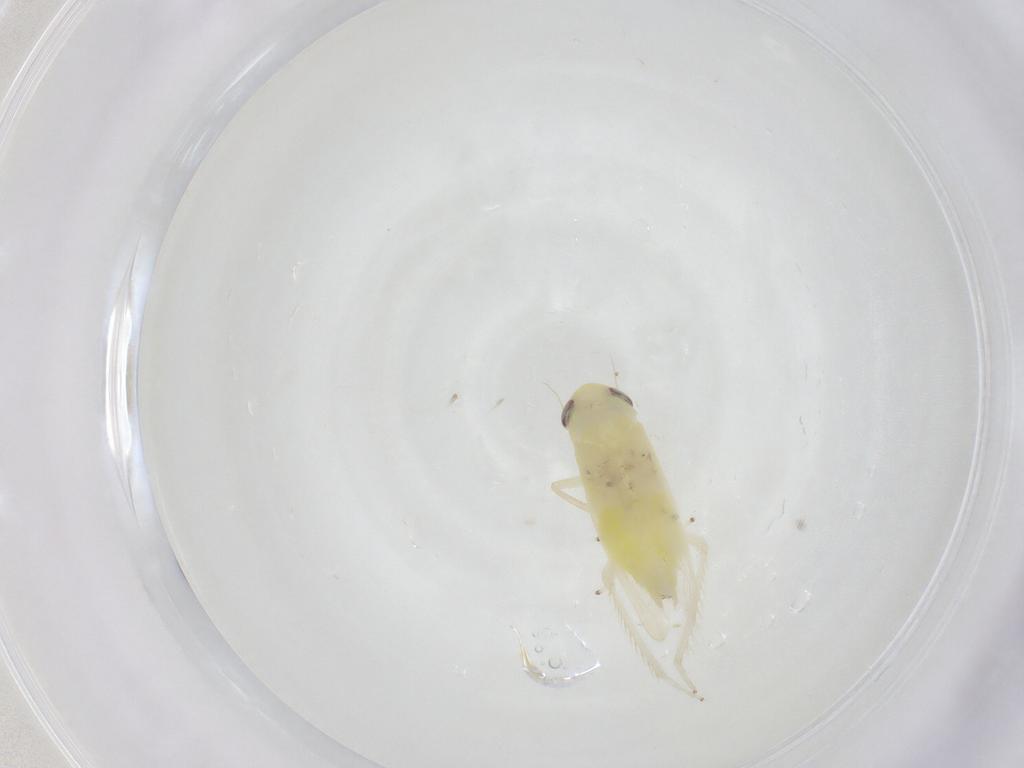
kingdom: Animalia
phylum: Arthropoda
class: Insecta
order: Hemiptera
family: Cicadellidae
